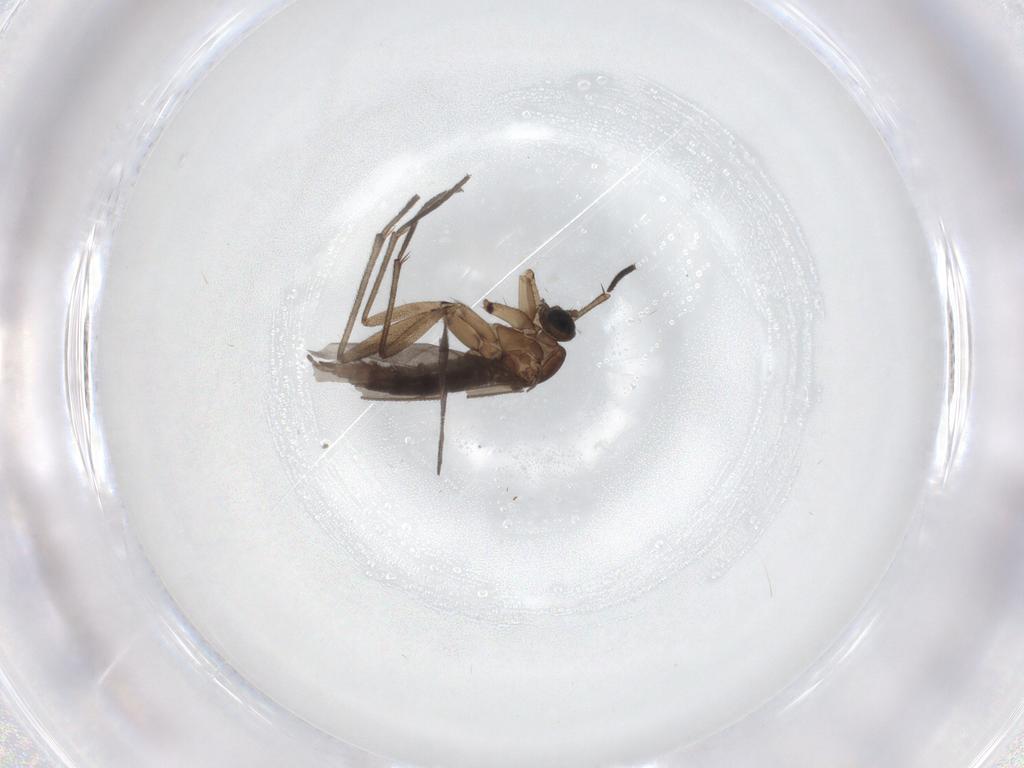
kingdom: Animalia
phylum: Arthropoda
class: Insecta
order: Diptera
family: Sciaridae
